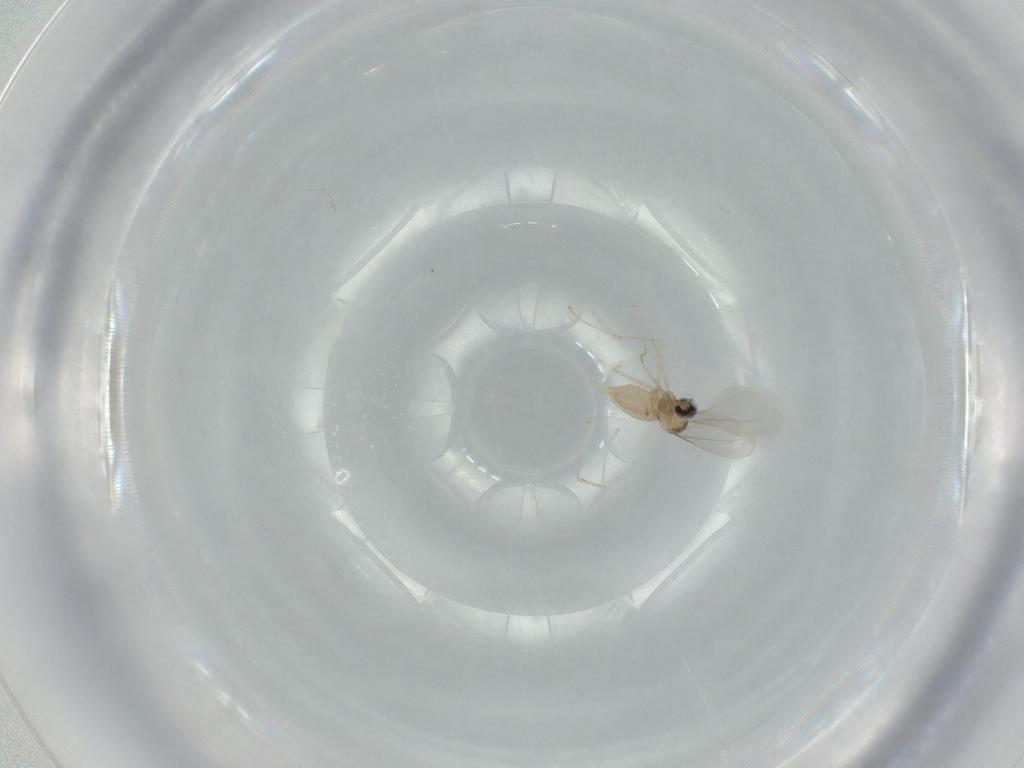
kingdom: Animalia
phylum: Arthropoda
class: Insecta
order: Diptera
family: Cecidomyiidae
